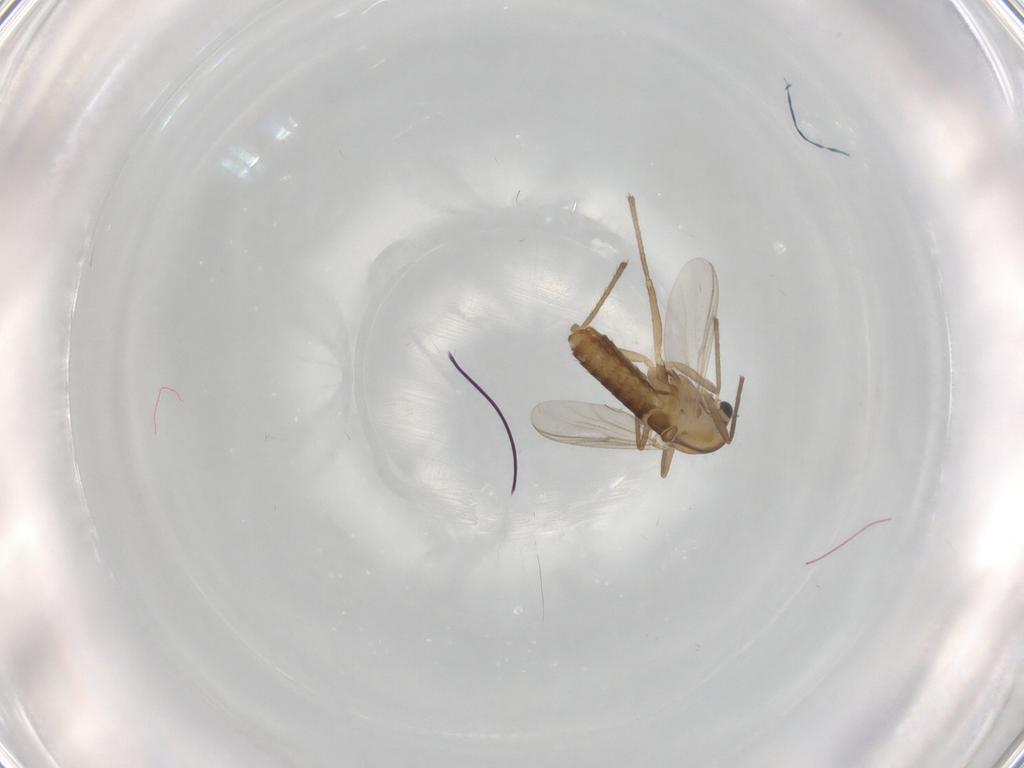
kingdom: Animalia
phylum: Arthropoda
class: Insecta
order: Diptera
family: Chironomidae
